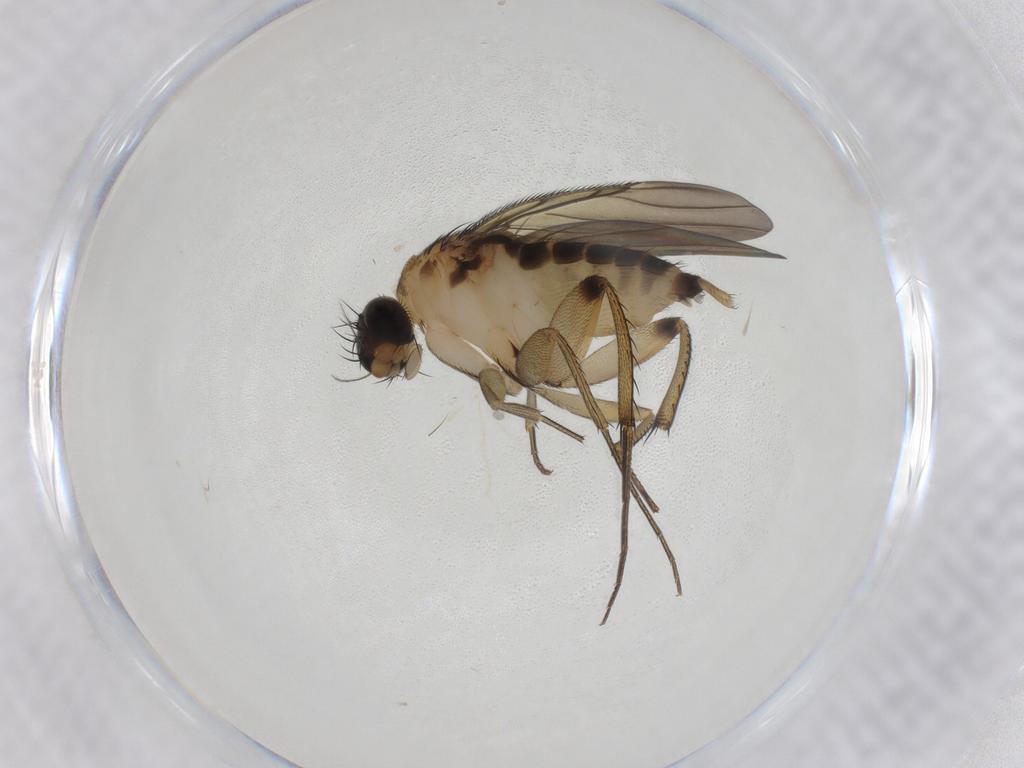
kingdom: Animalia
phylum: Arthropoda
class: Insecta
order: Diptera
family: Phoridae
